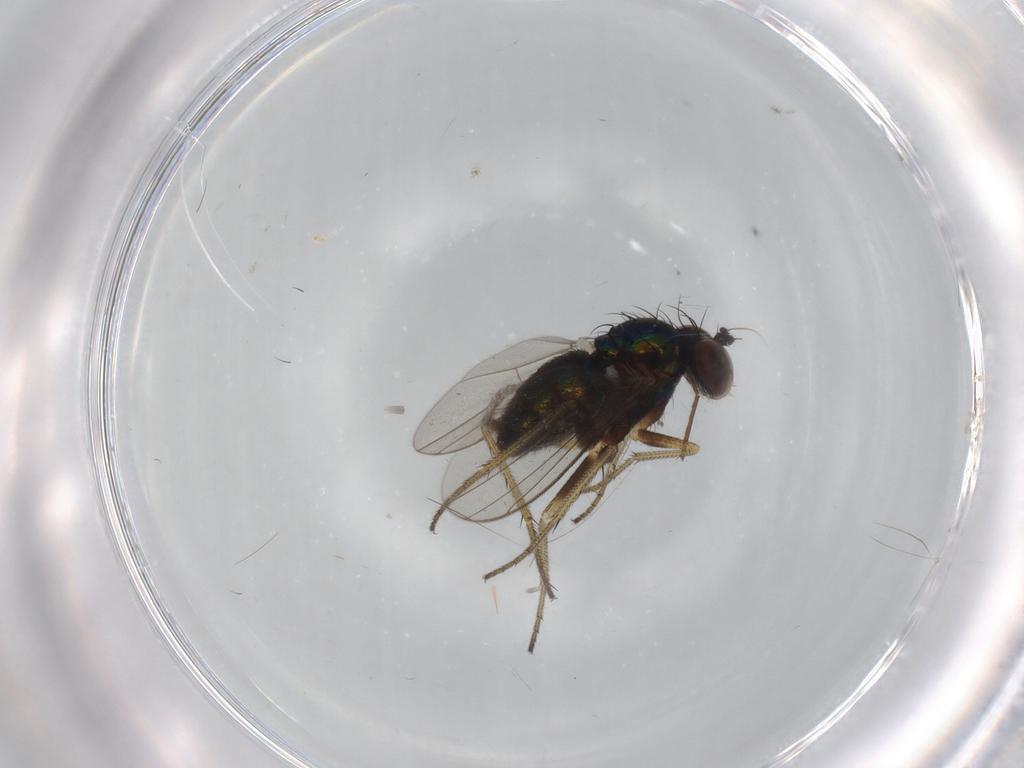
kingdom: Animalia
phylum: Arthropoda
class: Insecta
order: Diptera
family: Dolichopodidae
